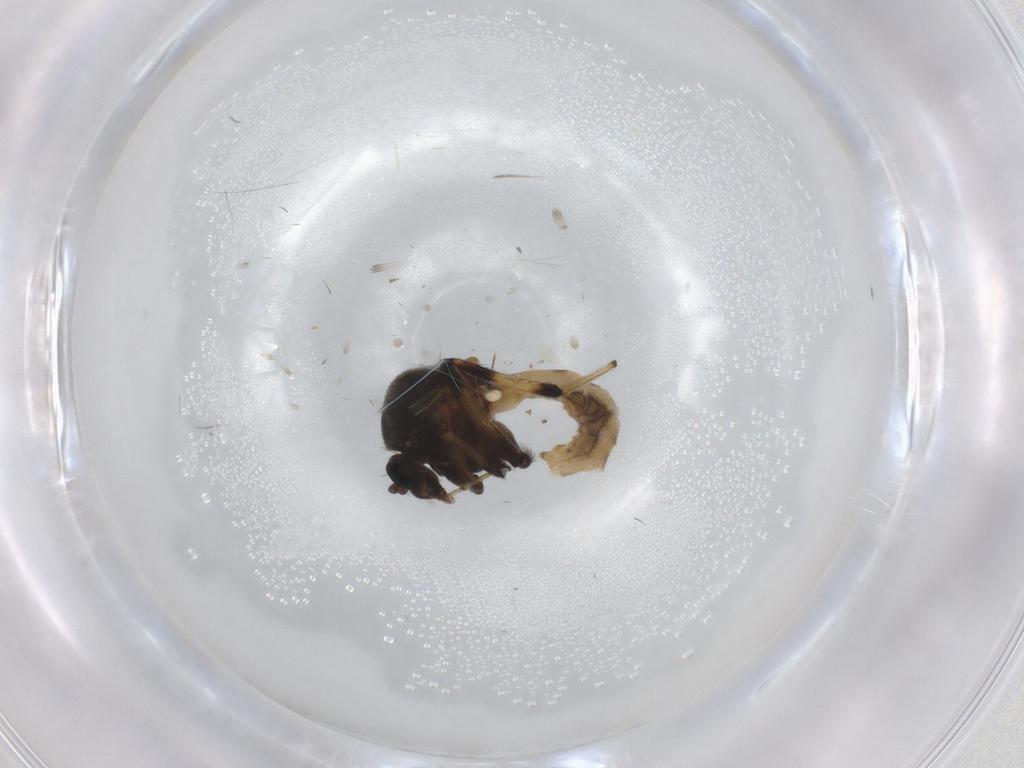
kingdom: Animalia
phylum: Arthropoda
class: Insecta
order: Diptera
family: Ceratopogonidae
